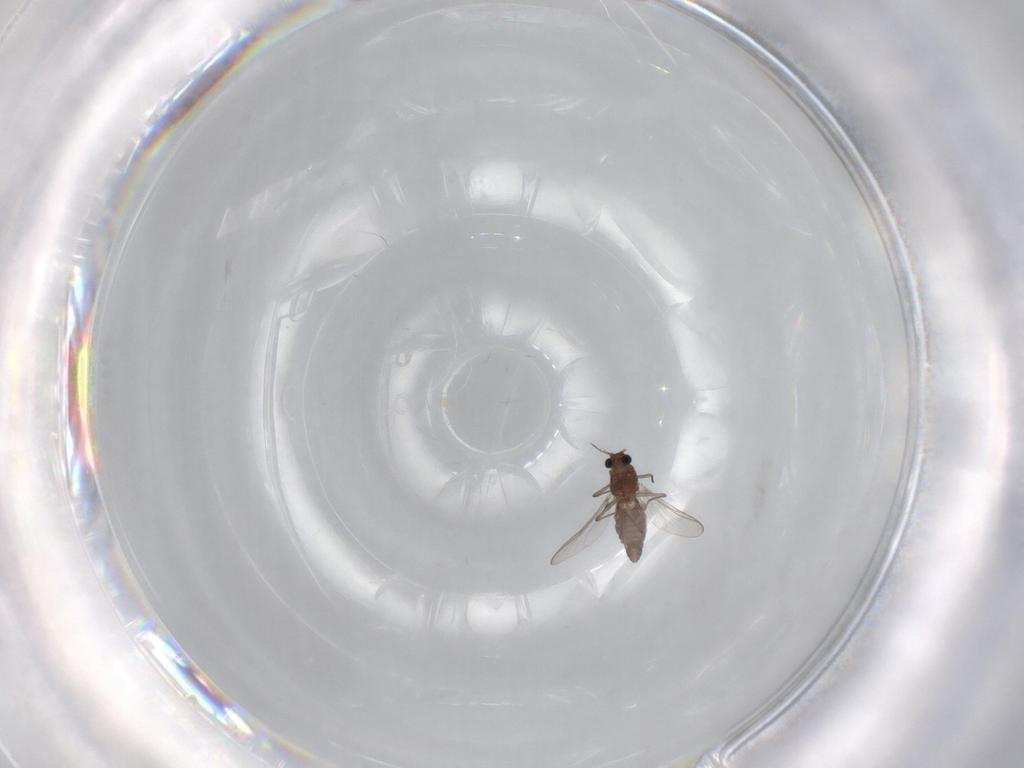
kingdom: Animalia
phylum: Arthropoda
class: Insecta
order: Diptera
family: Chironomidae
